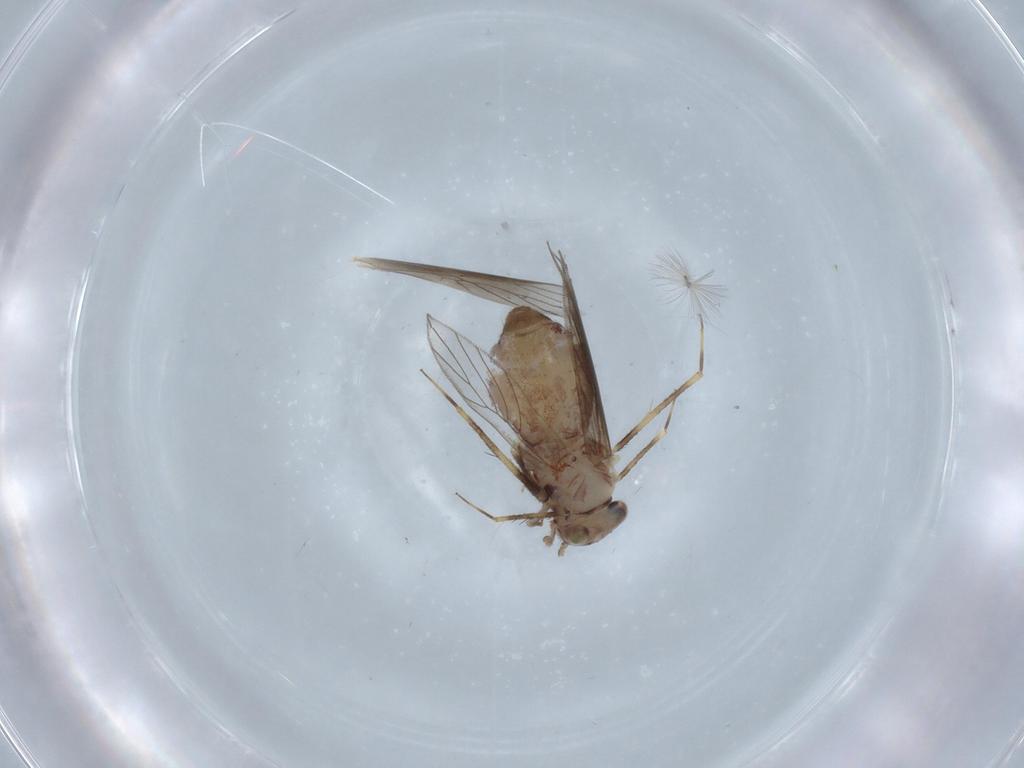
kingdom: Animalia
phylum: Arthropoda
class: Insecta
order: Psocodea
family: Lepidopsocidae
